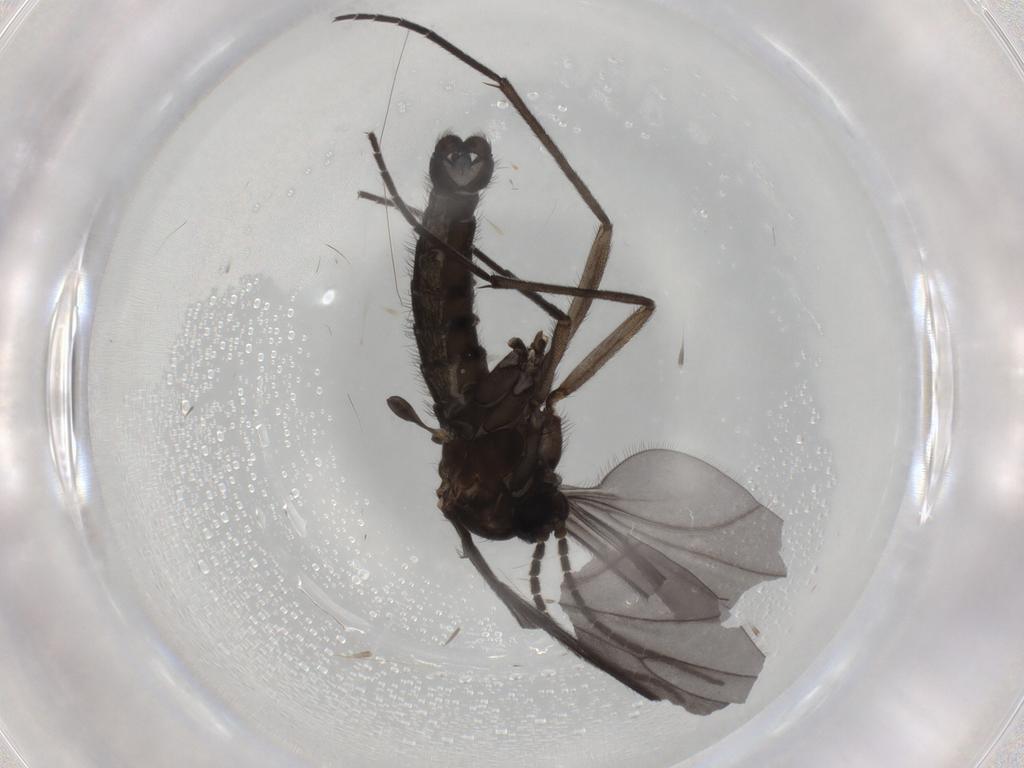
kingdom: Animalia
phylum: Arthropoda
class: Insecta
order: Diptera
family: Sciaridae
